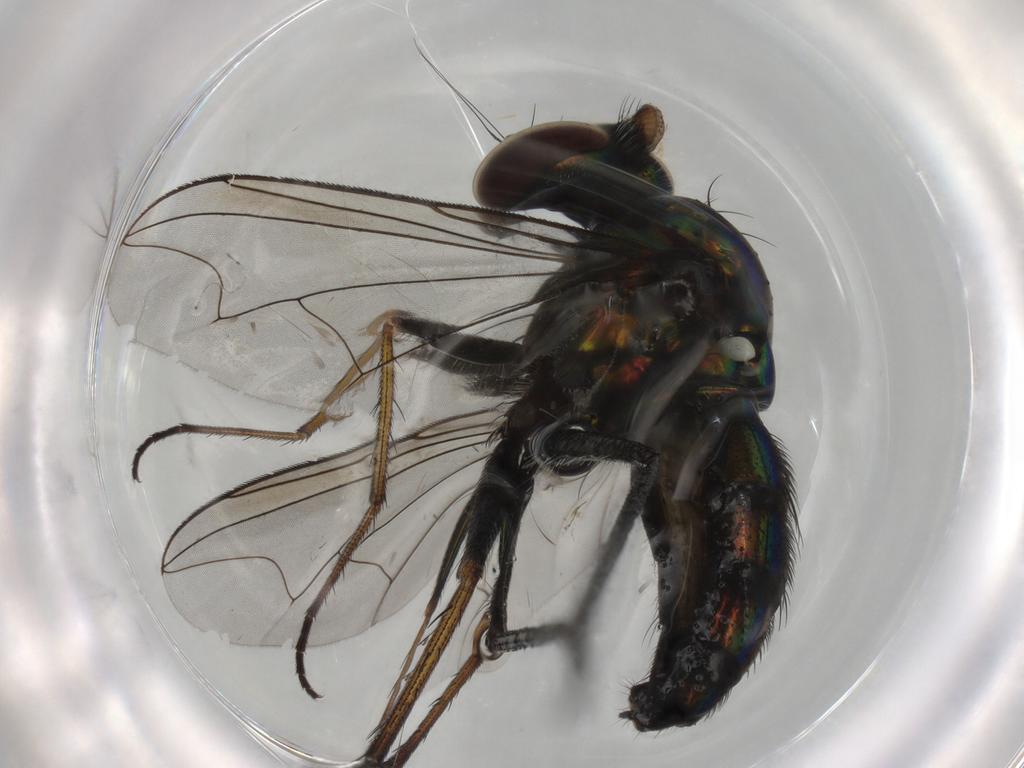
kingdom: Animalia
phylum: Arthropoda
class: Insecta
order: Diptera
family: Dolichopodidae
